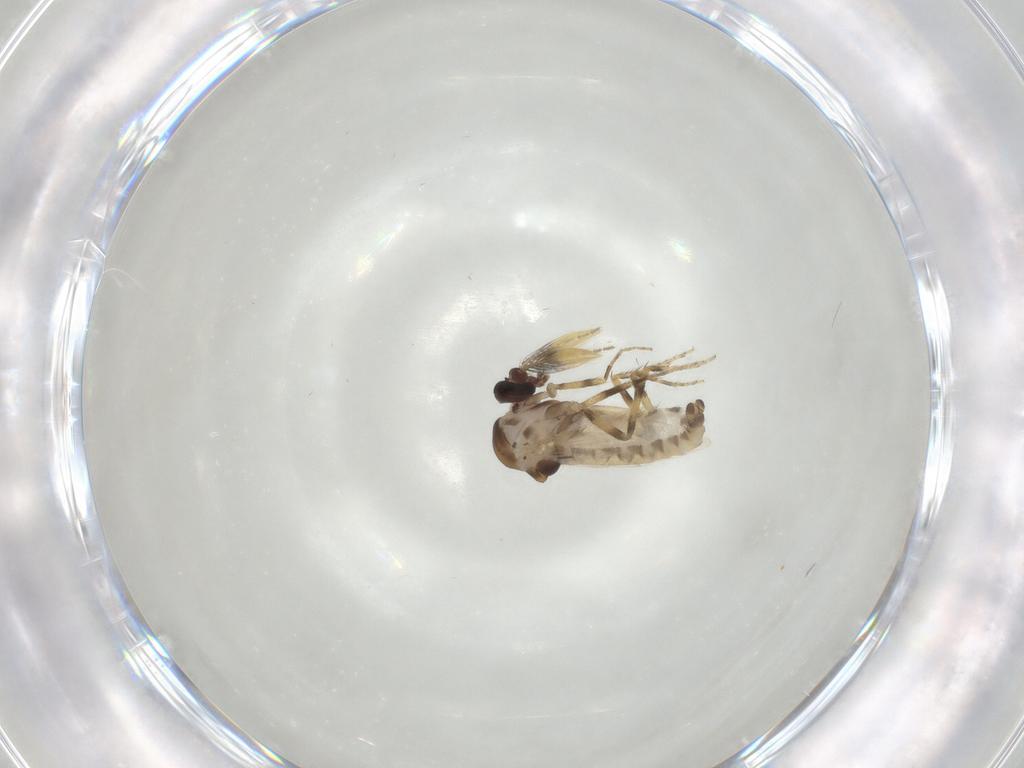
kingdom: Animalia
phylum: Arthropoda
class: Insecta
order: Diptera
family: Ceratopogonidae
